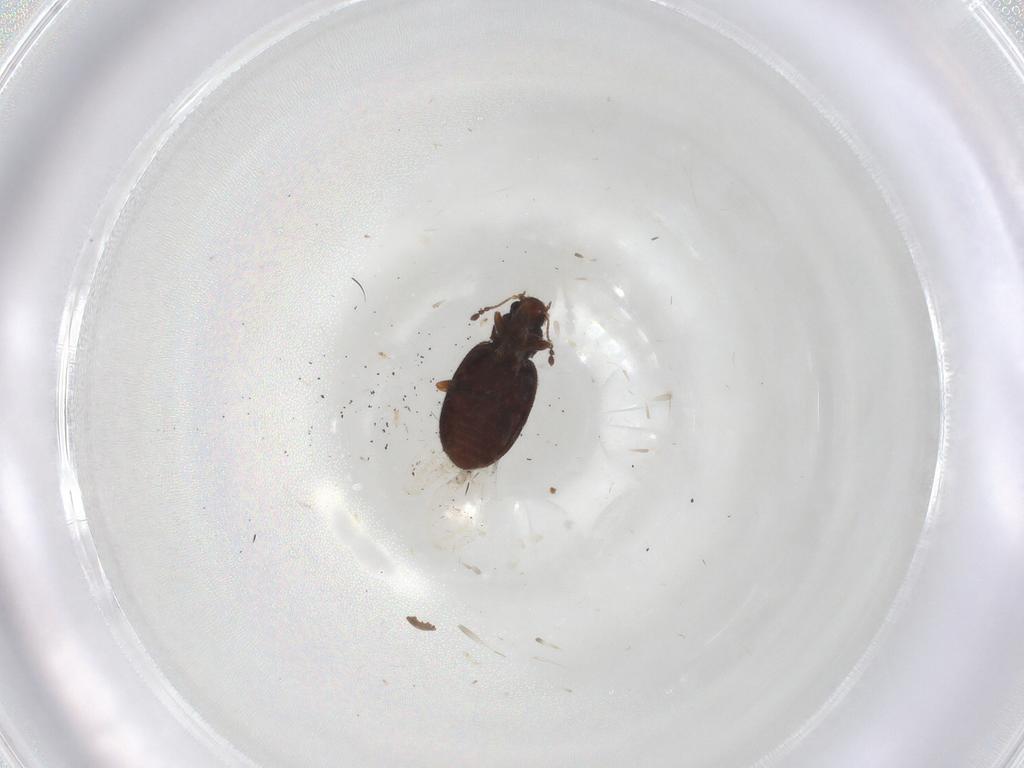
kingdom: Animalia
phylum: Arthropoda
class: Insecta
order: Coleoptera
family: Latridiidae
